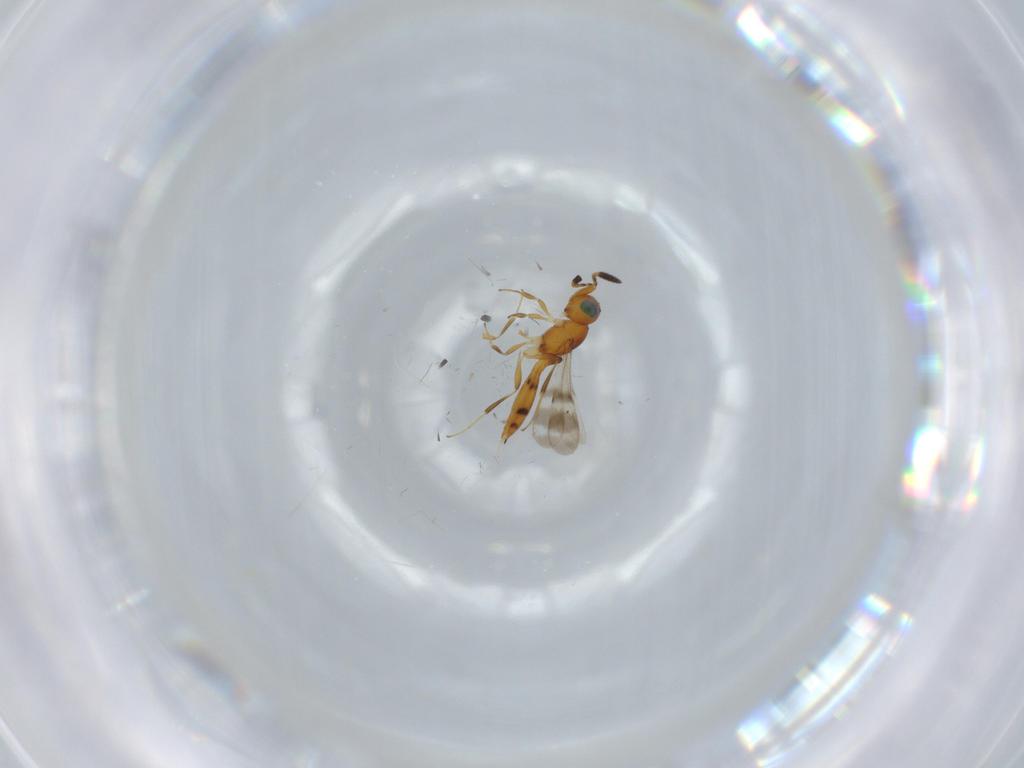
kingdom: Animalia
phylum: Arthropoda
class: Insecta
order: Hymenoptera
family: Scelionidae
